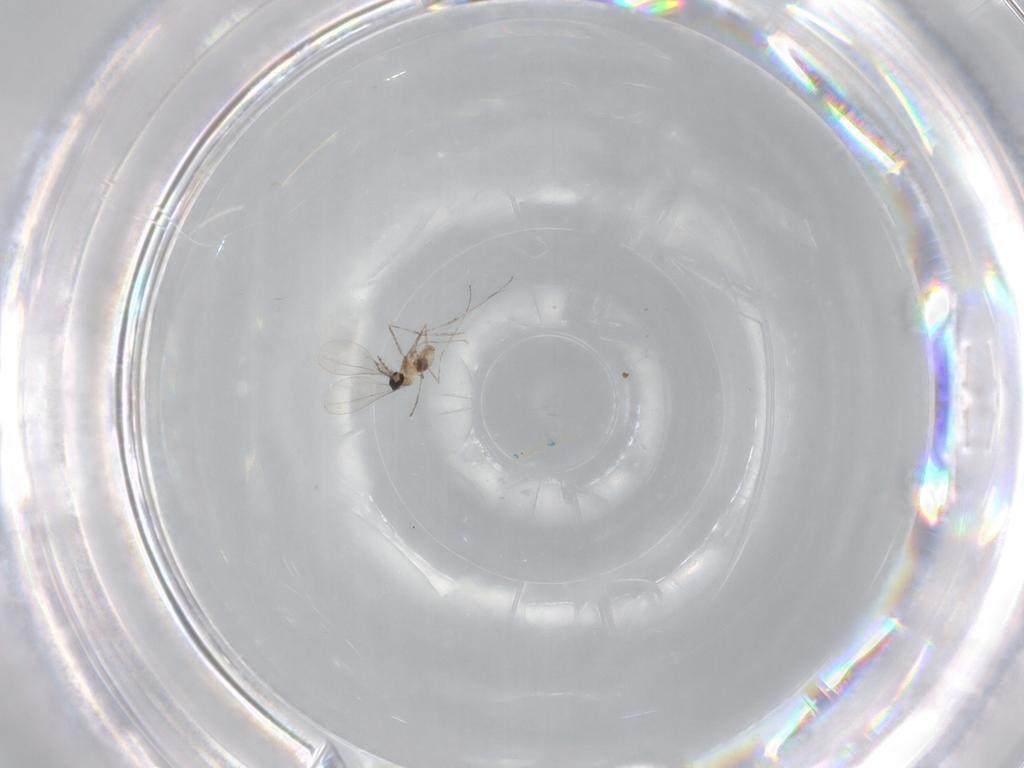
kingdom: Animalia
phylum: Arthropoda
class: Insecta
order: Diptera
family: Cecidomyiidae
